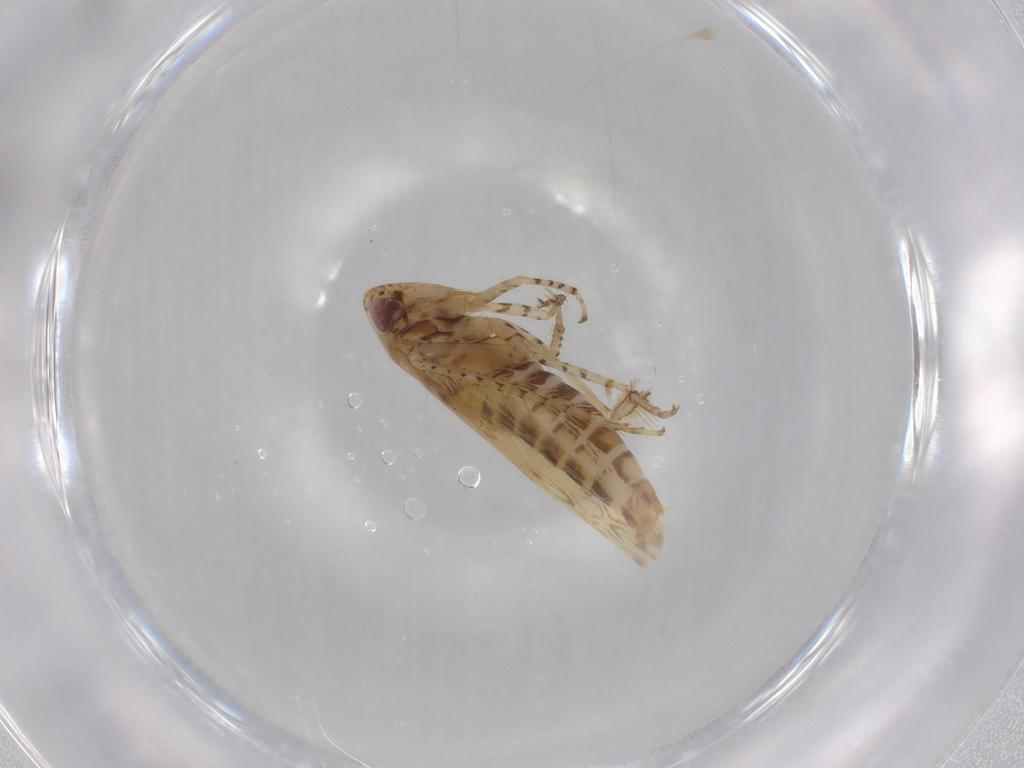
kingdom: Animalia
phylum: Arthropoda
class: Insecta
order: Hemiptera
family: Cicadellidae
